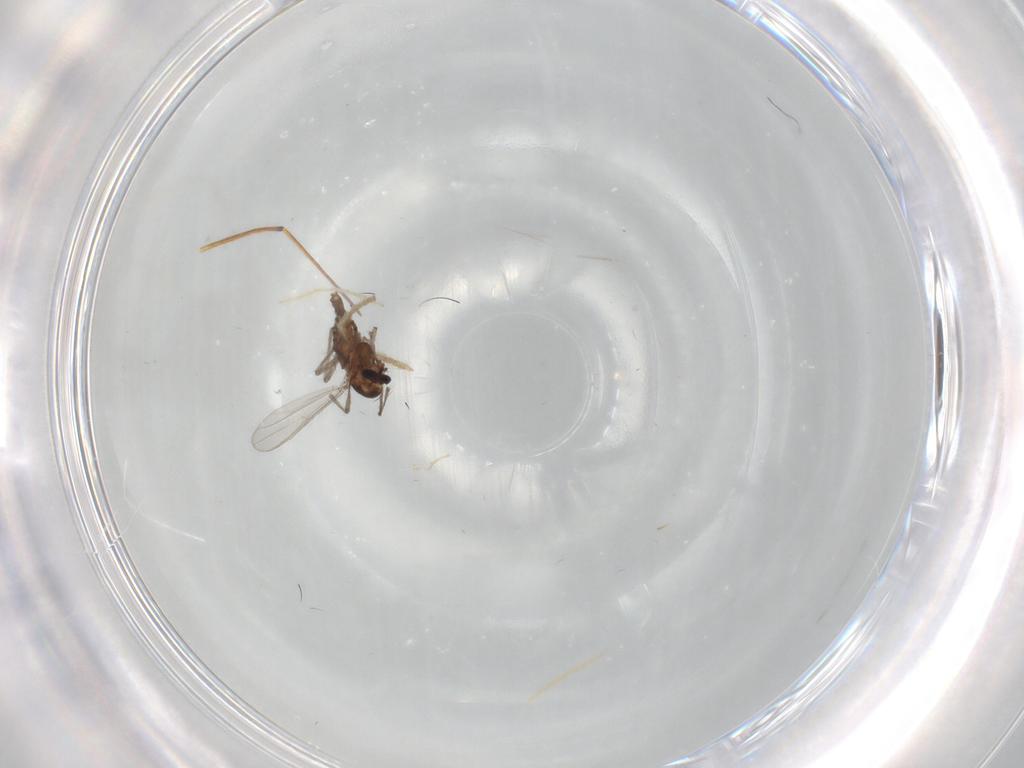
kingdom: Animalia
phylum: Arthropoda
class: Insecta
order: Diptera
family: Chironomidae
